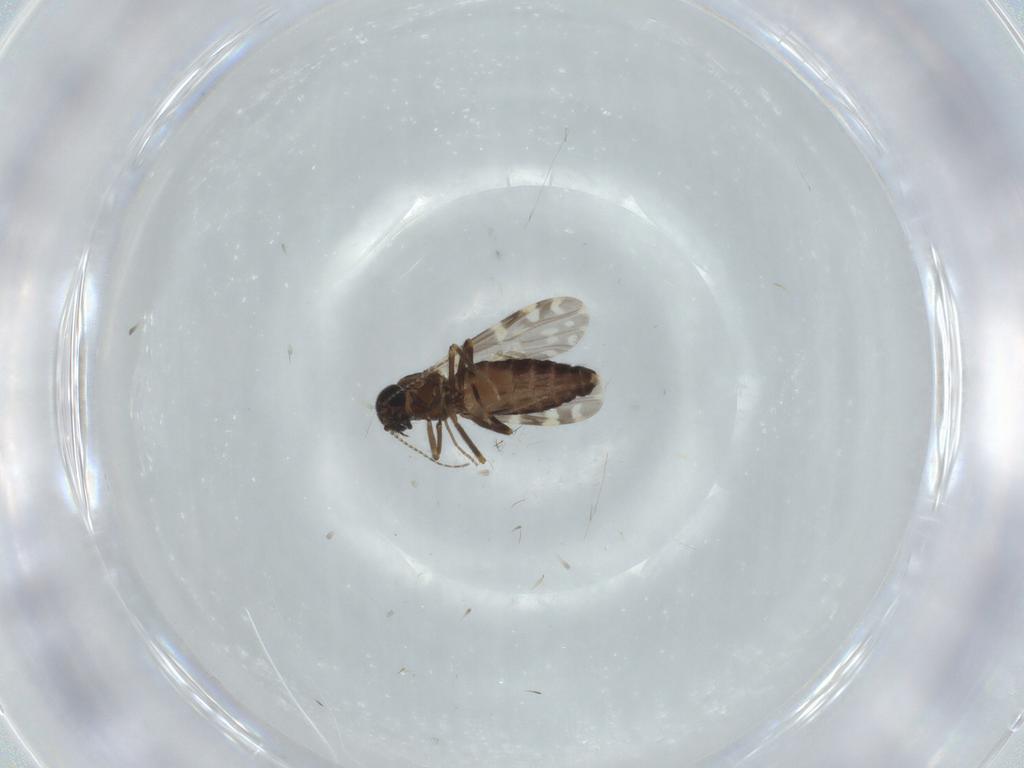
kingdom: Animalia
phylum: Arthropoda
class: Insecta
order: Diptera
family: Ceratopogonidae
